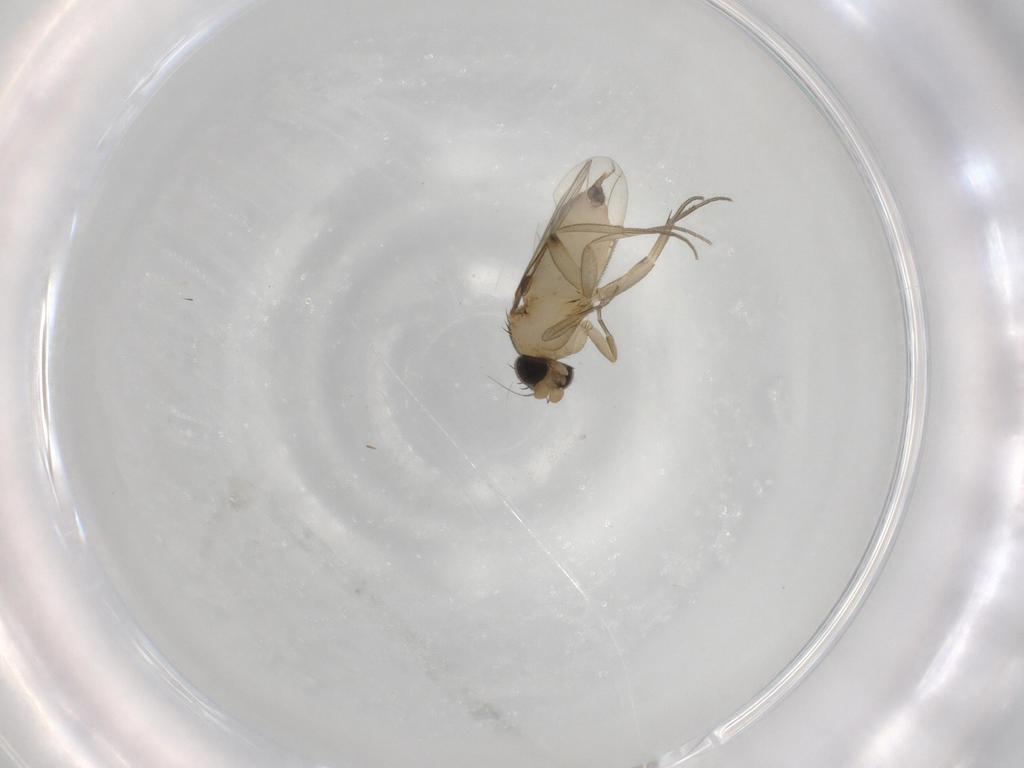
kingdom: Animalia
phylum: Arthropoda
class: Insecta
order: Diptera
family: Phoridae
